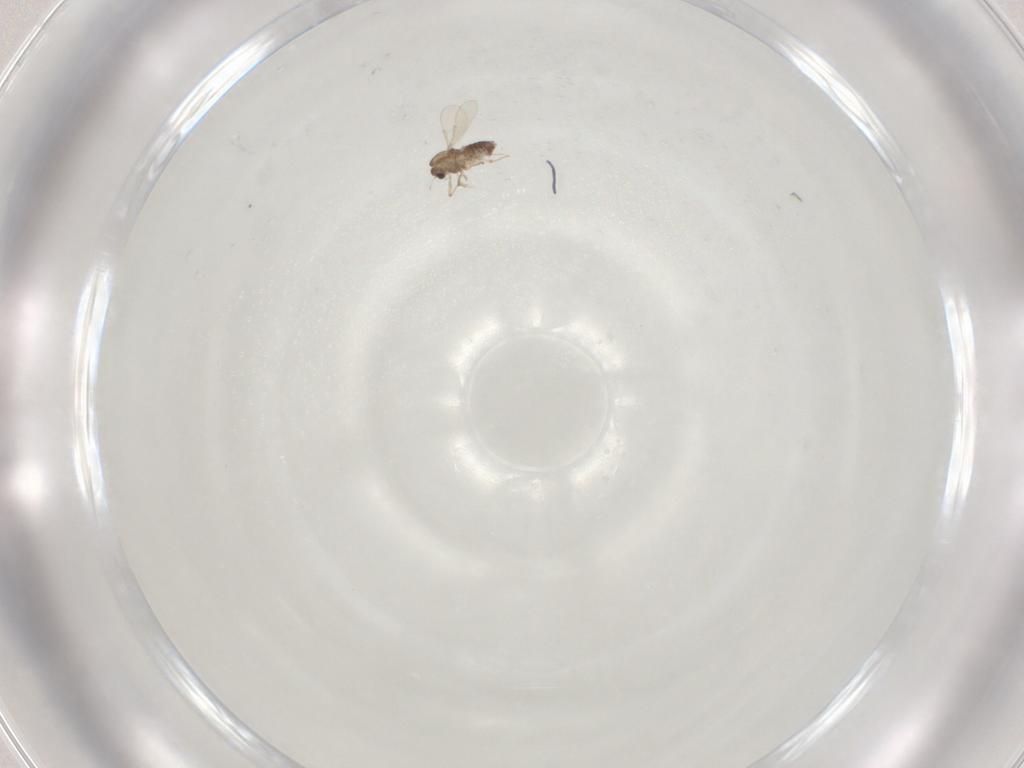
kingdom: Animalia
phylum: Arthropoda
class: Insecta
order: Diptera
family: Chironomidae
